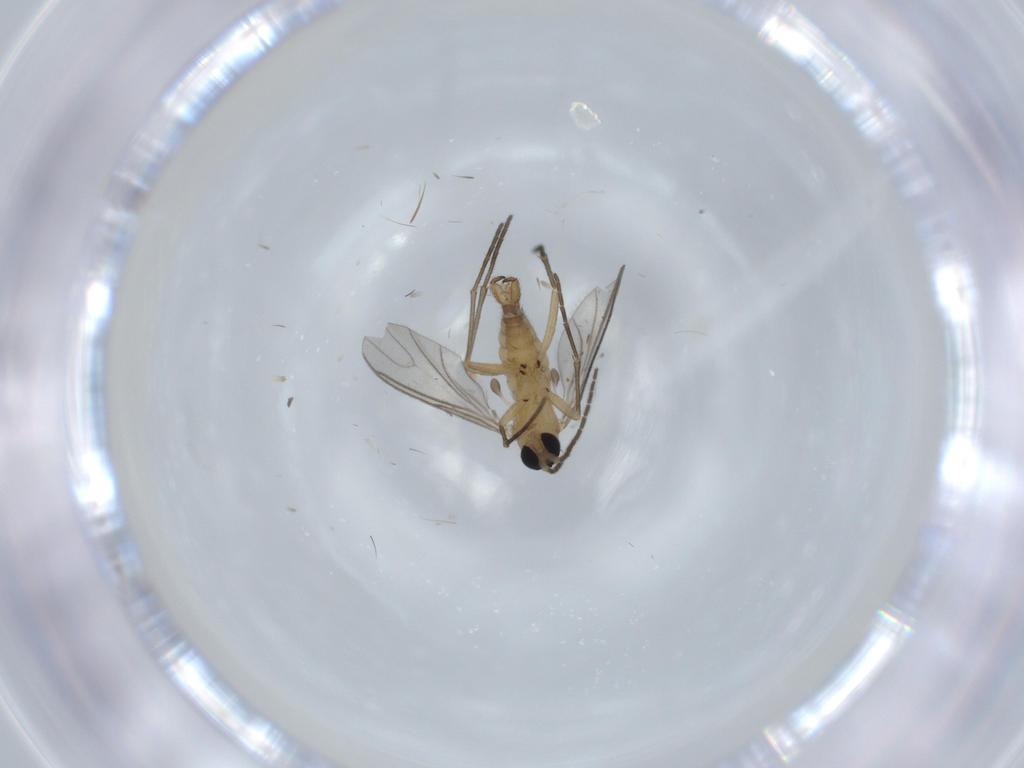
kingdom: Animalia
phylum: Arthropoda
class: Insecta
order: Diptera
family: Sciaridae
